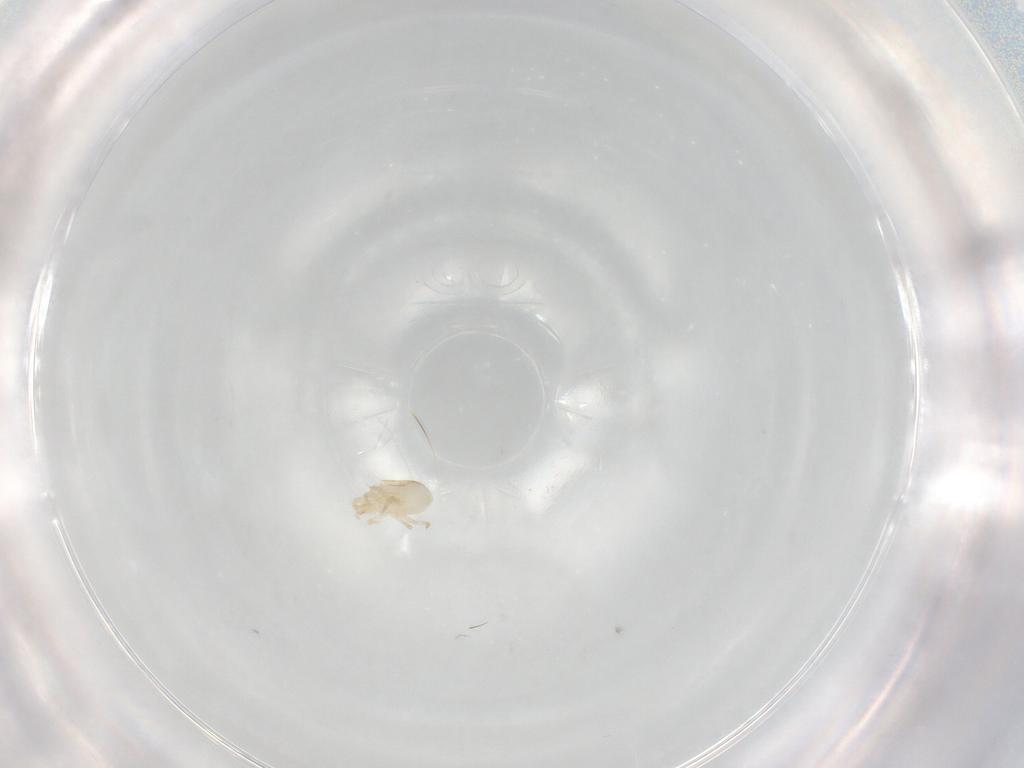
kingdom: Animalia
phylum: Arthropoda
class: Arachnida
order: Mesostigmata
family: Melicharidae
